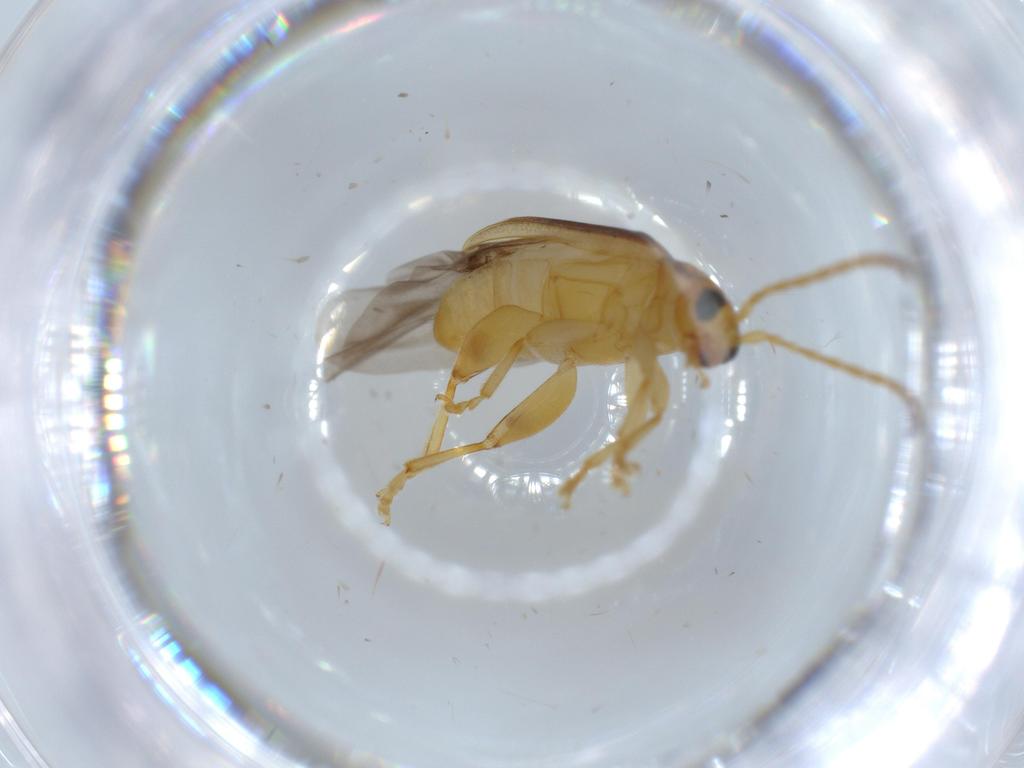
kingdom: Animalia
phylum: Arthropoda
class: Insecta
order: Coleoptera
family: Chrysomelidae
